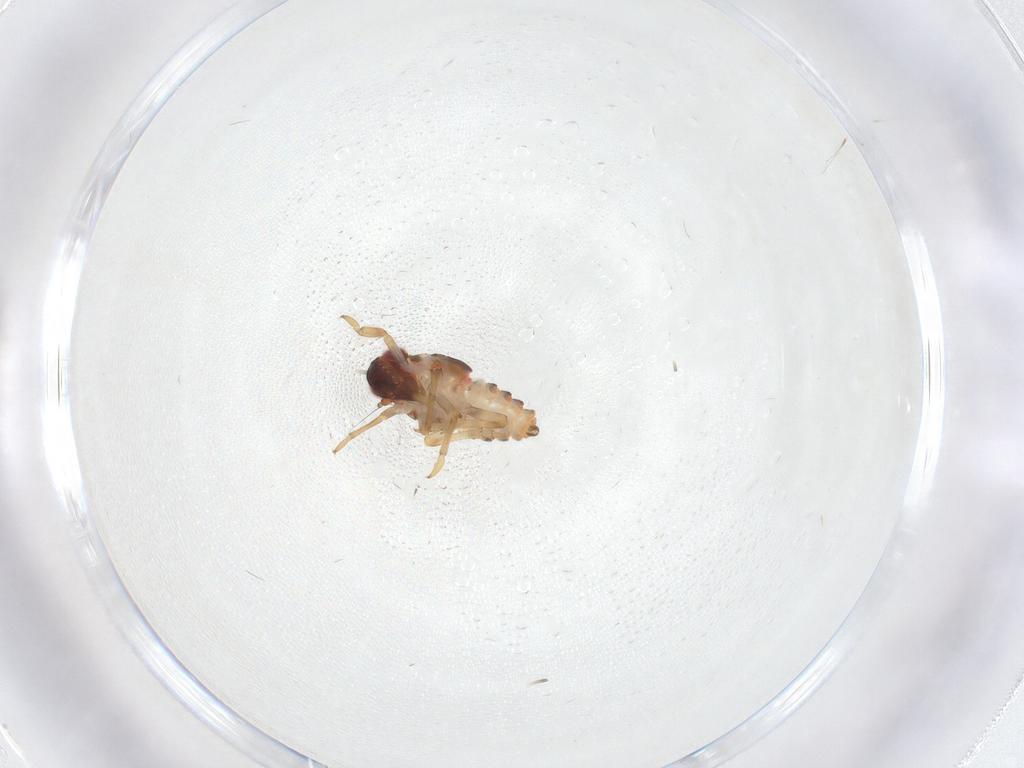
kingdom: Animalia
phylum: Arthropoda
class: Insecta
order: Hemiptera
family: Issidae
